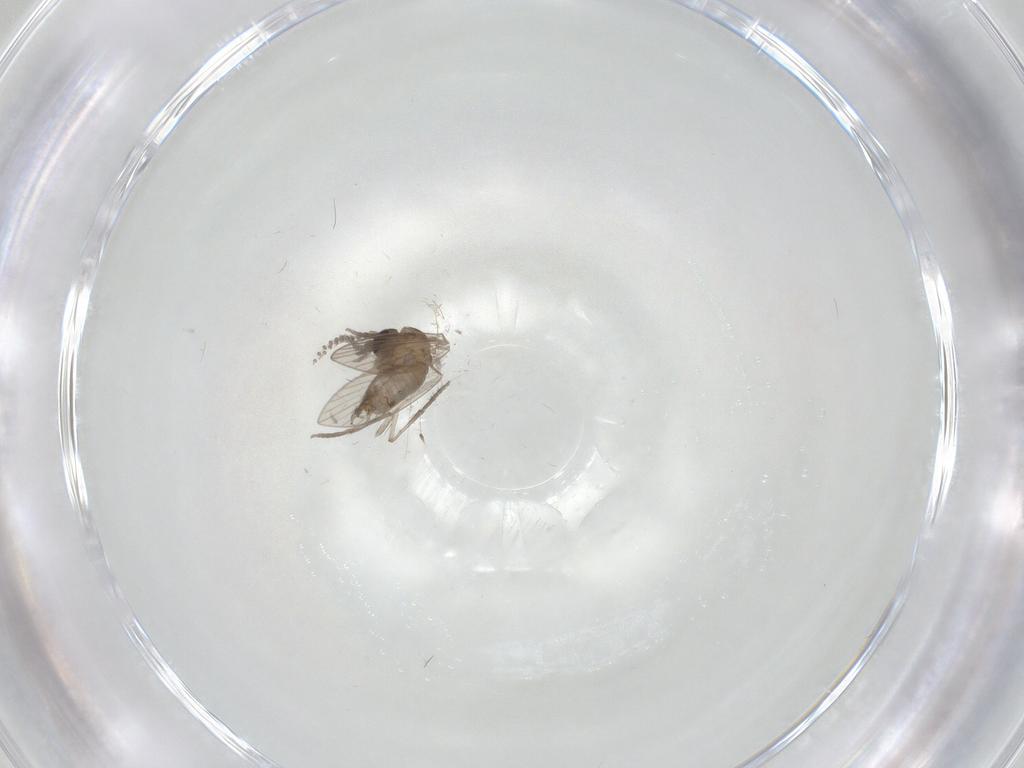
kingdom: Animalia
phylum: Arthropoda
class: Insecta
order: Diptera
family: Psychodidae
